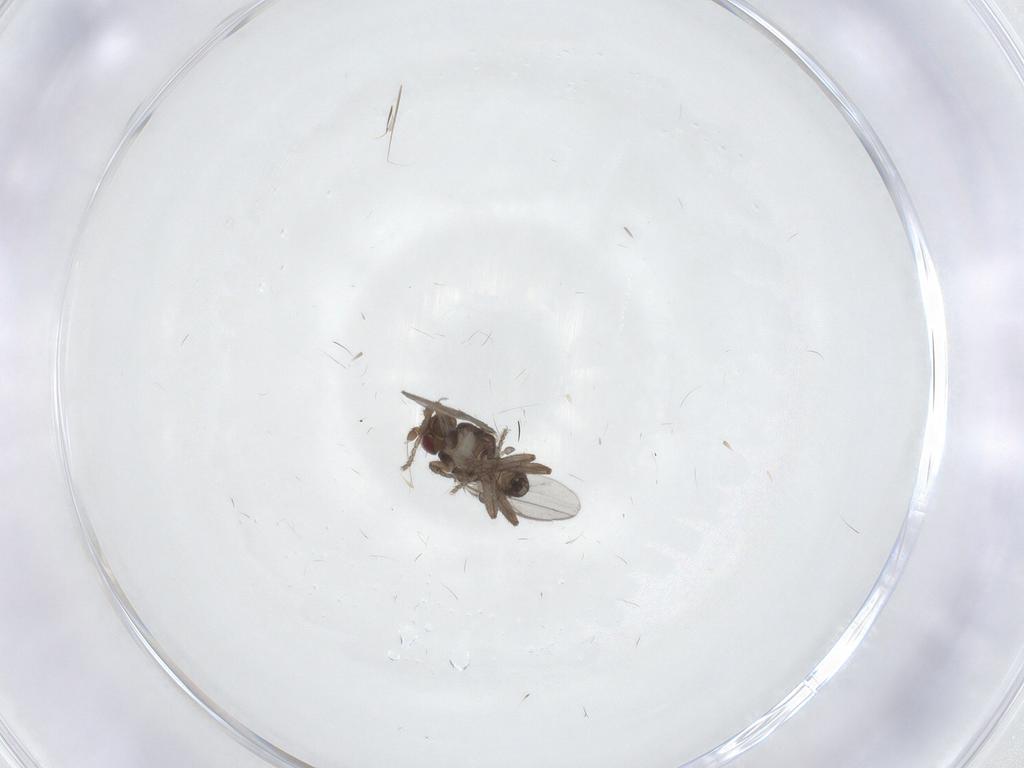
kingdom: Animalia
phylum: Arthropoda
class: Insecta
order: Diptera
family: Sphaeroceridae
